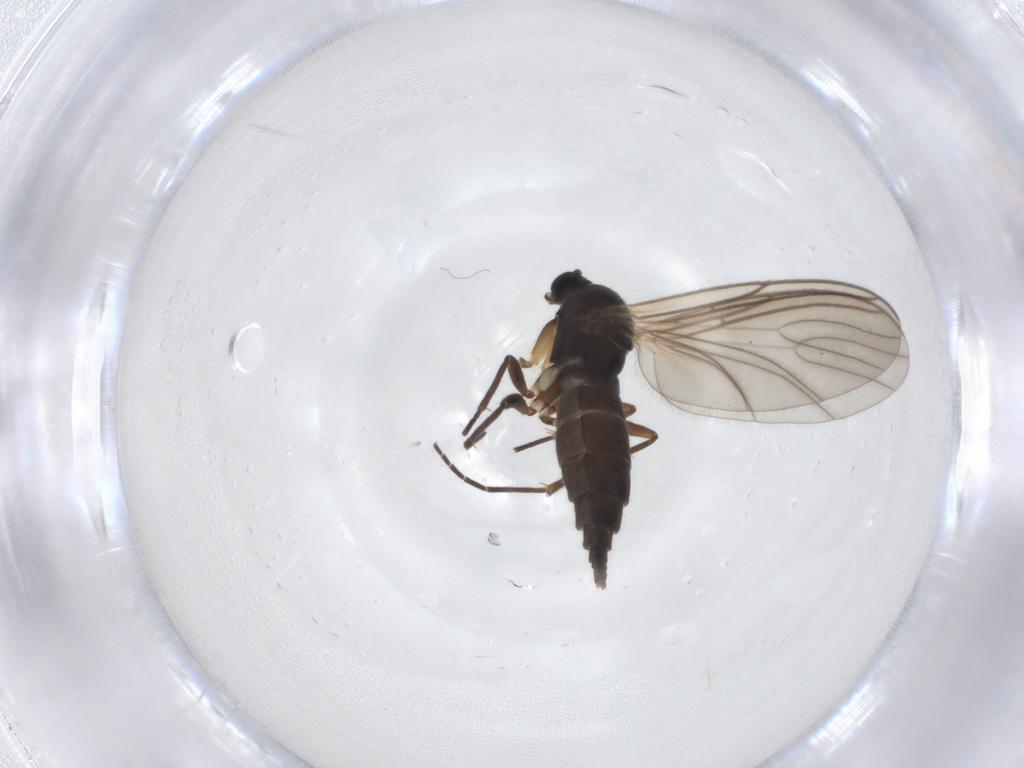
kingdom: Animalia
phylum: Arthropoda
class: Insecta
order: Diptera
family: Sciaridae
